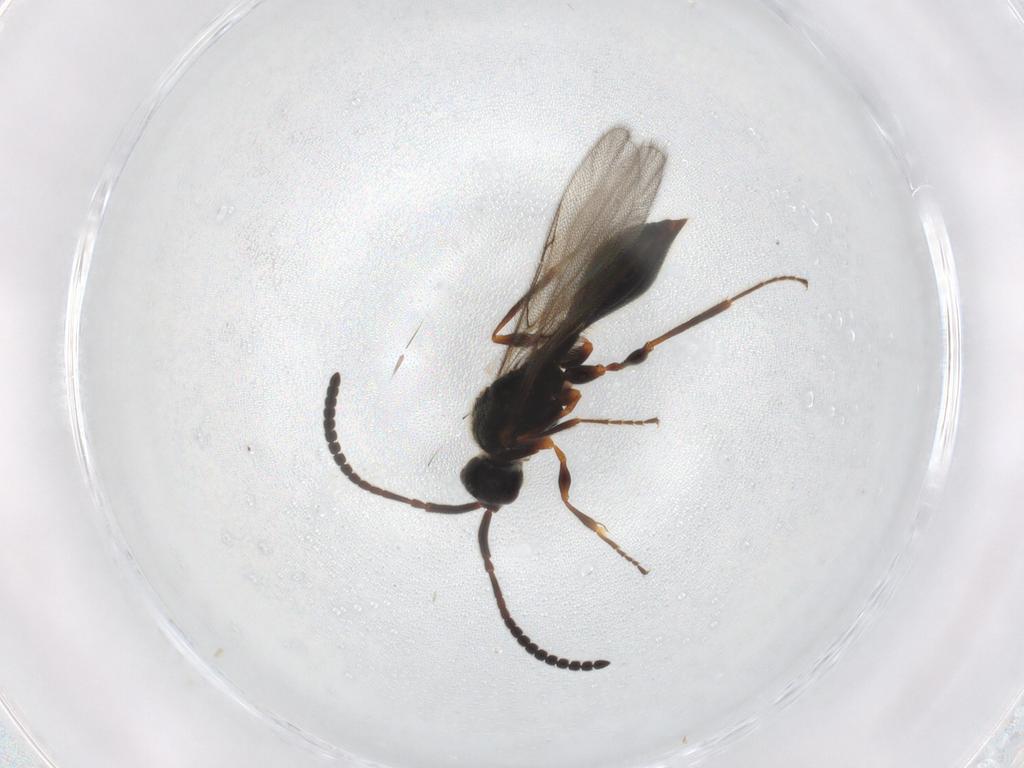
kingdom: Animalia
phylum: Arthropoda
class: Insecta
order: Hymenoptera
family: Diapriidae
